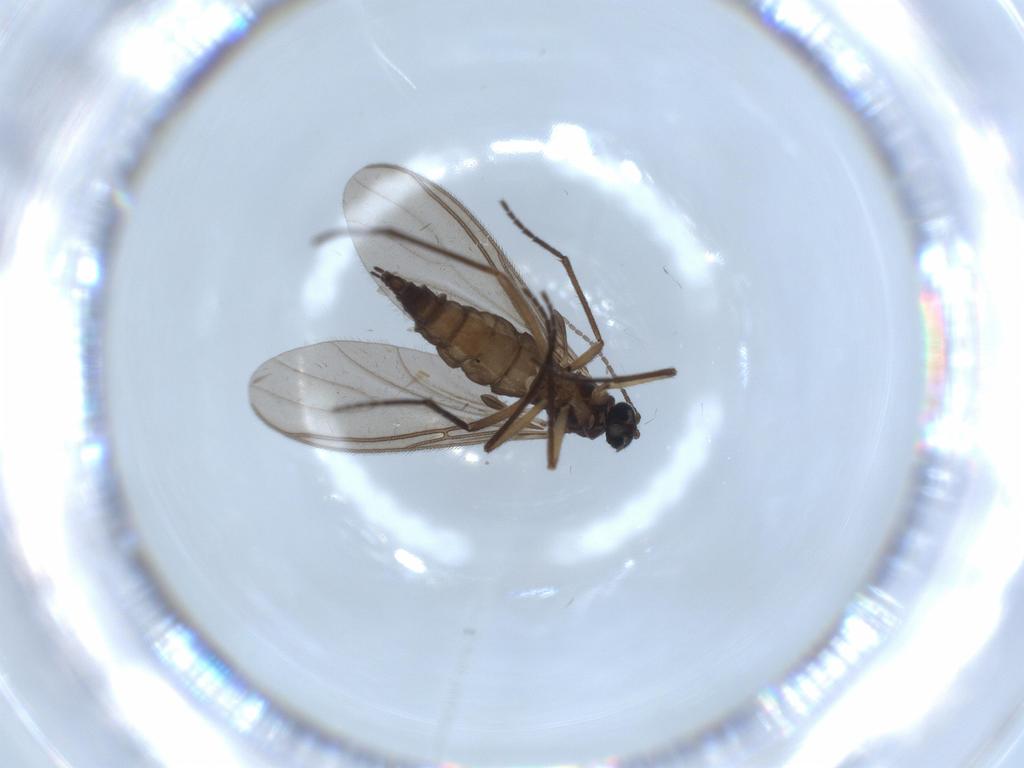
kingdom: Animalia
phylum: Arthropoda
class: Insecta
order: Diptera
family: Sciaridae
